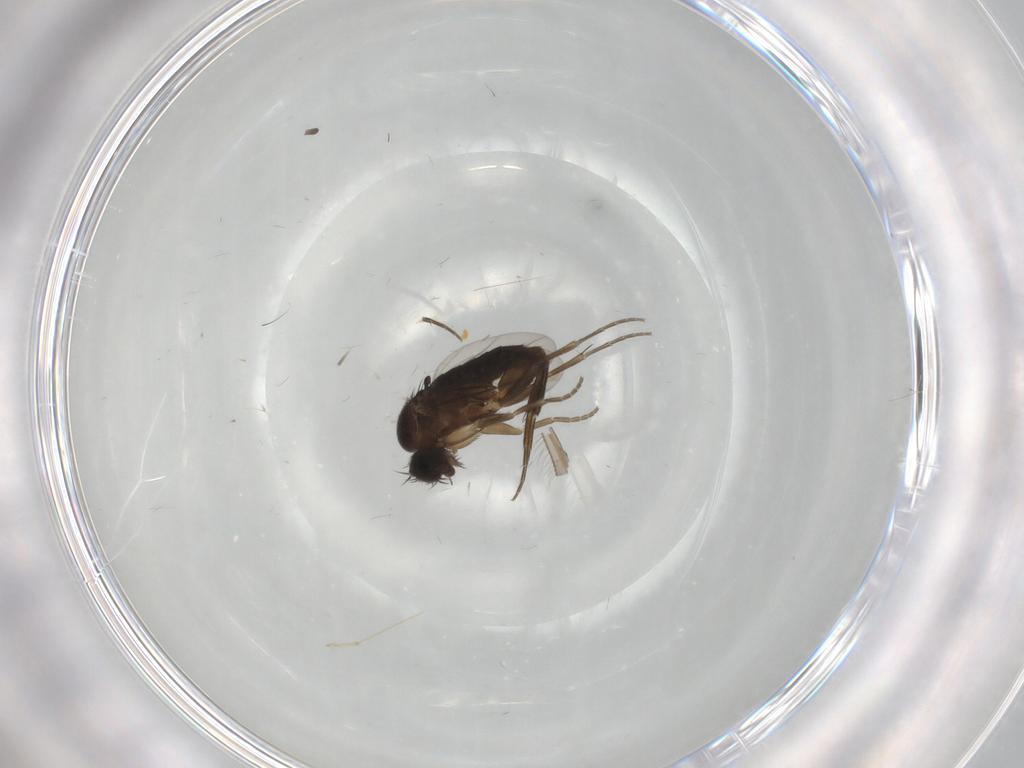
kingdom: Animalia
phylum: Arthropoda
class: Insecta
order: Diptera
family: Phoridae
